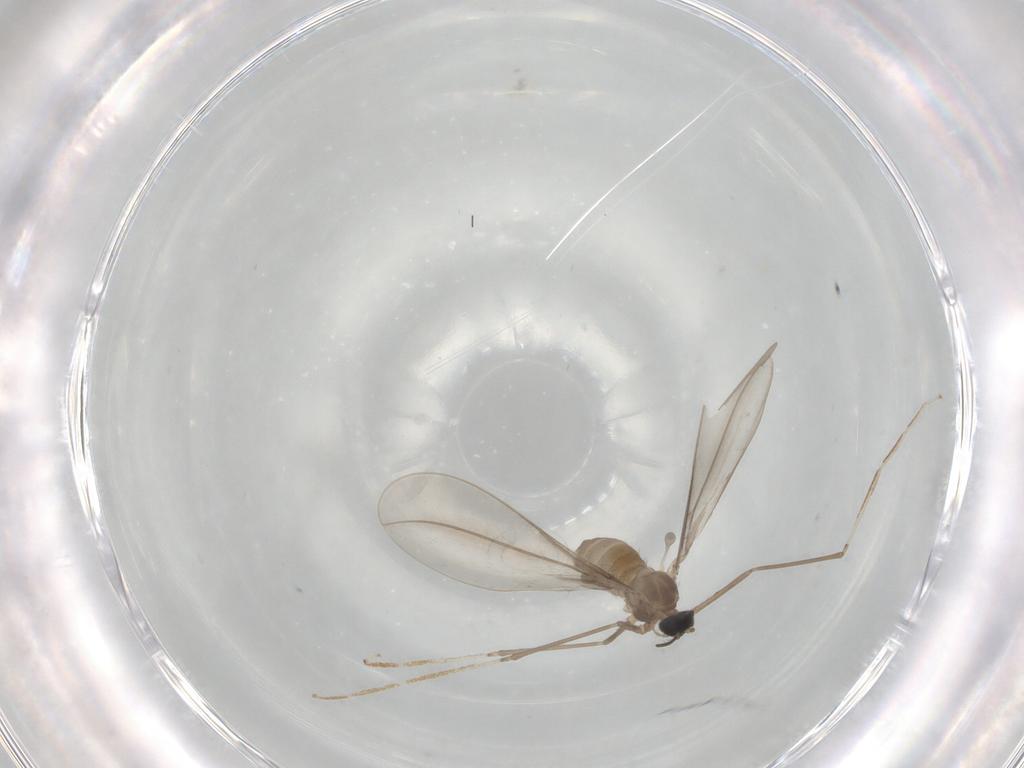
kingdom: Animalia
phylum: Arthropoda
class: Insecta
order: Diptera
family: Cecidomyiidae
